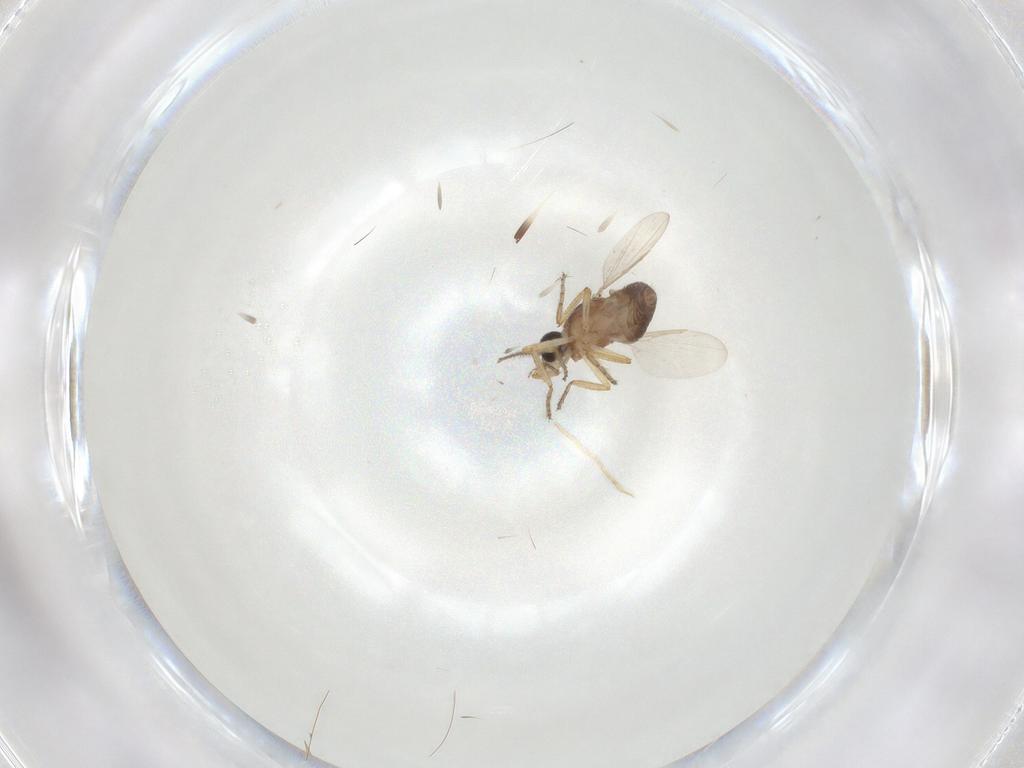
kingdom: Animalia
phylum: Arthropoda
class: Insecta
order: Diptera
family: Ceratopogonidae
